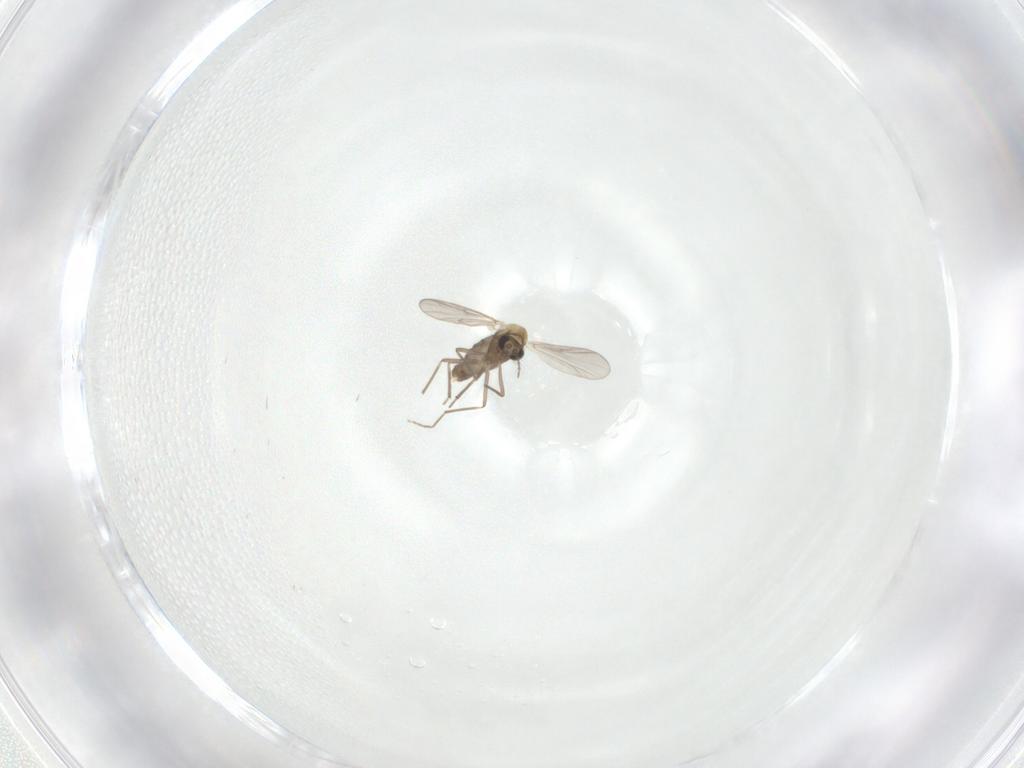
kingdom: Animalia
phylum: Arthropoda
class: Insecta
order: Diptera
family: Chironomidae
